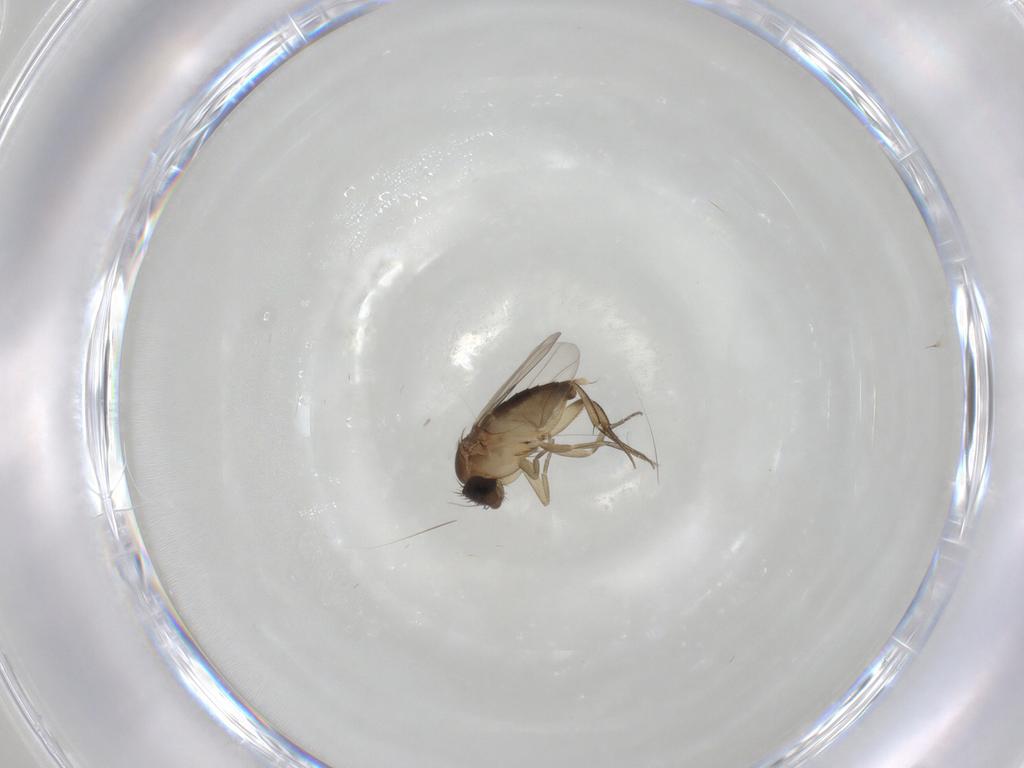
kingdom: Animalia
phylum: Arthropoda
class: Insecta
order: Diptera
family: Phoridae
